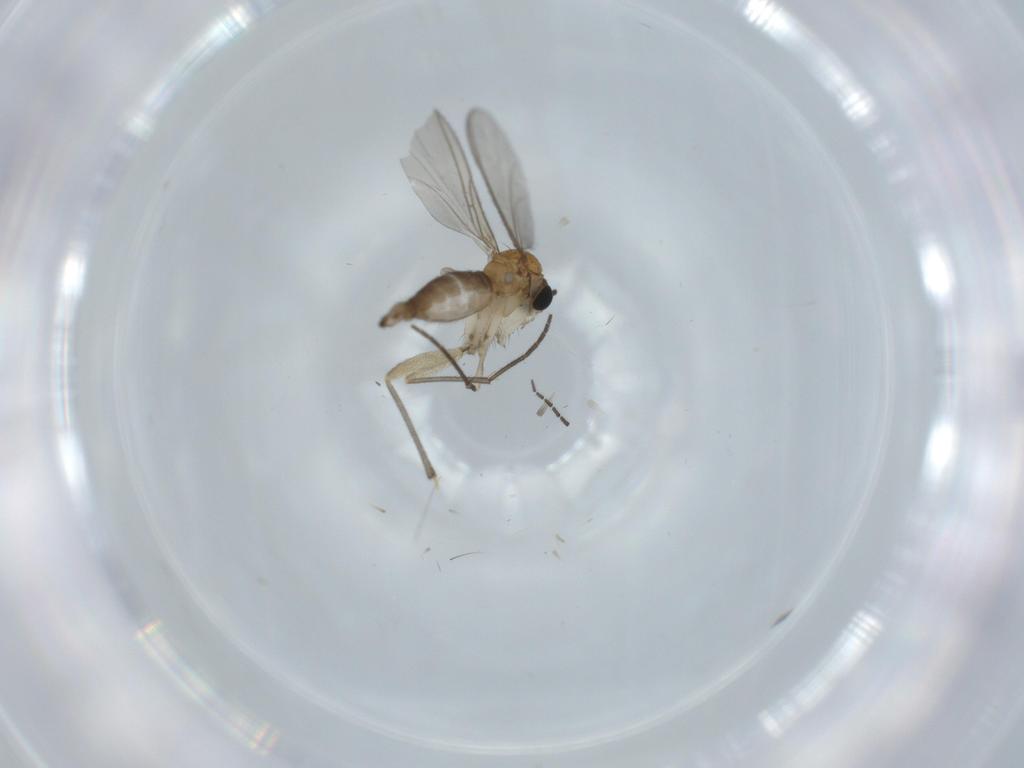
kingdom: Animalia
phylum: Arthropoda
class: Insecta
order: Diptera
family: Sciaridae
